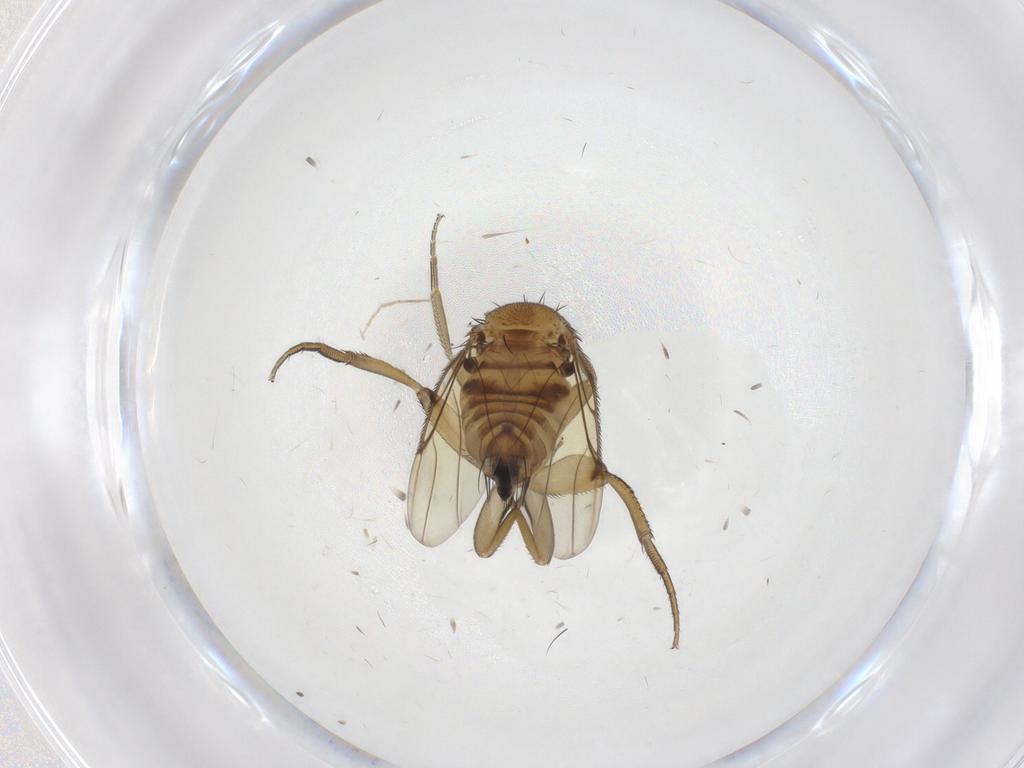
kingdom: Animalia
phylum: Arthropoda
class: Insecta
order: Diptera
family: Phoridae
